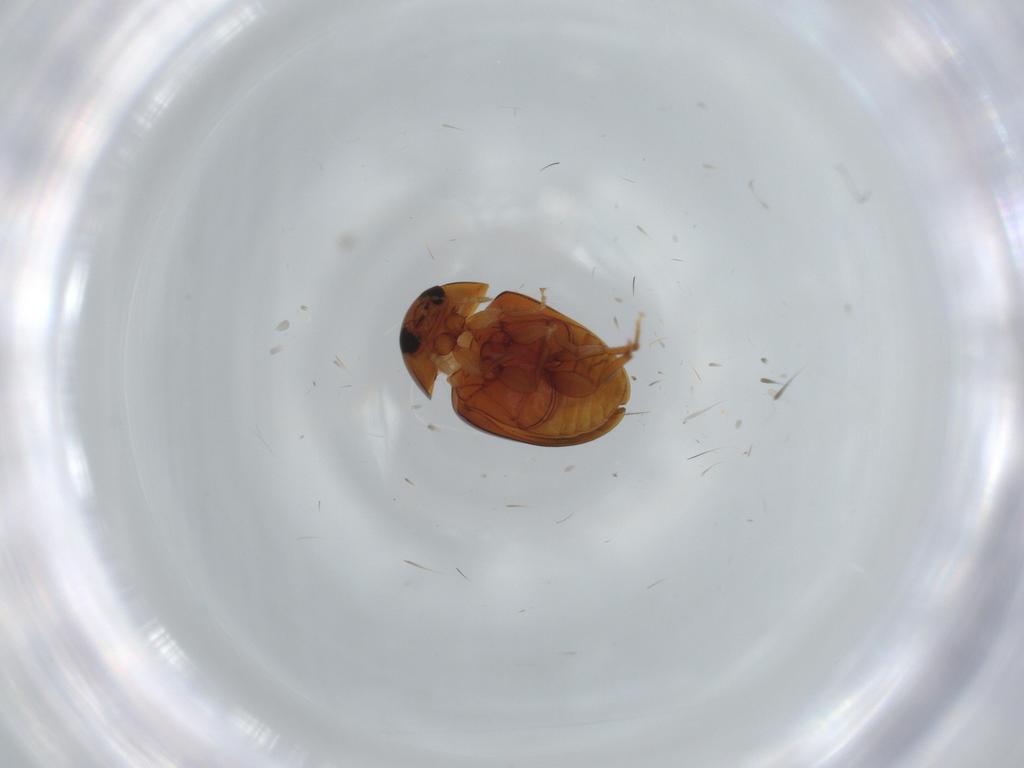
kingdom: Animalia
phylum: Arthropoda
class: Insecta
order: Coleoptera
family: Phalacridae
